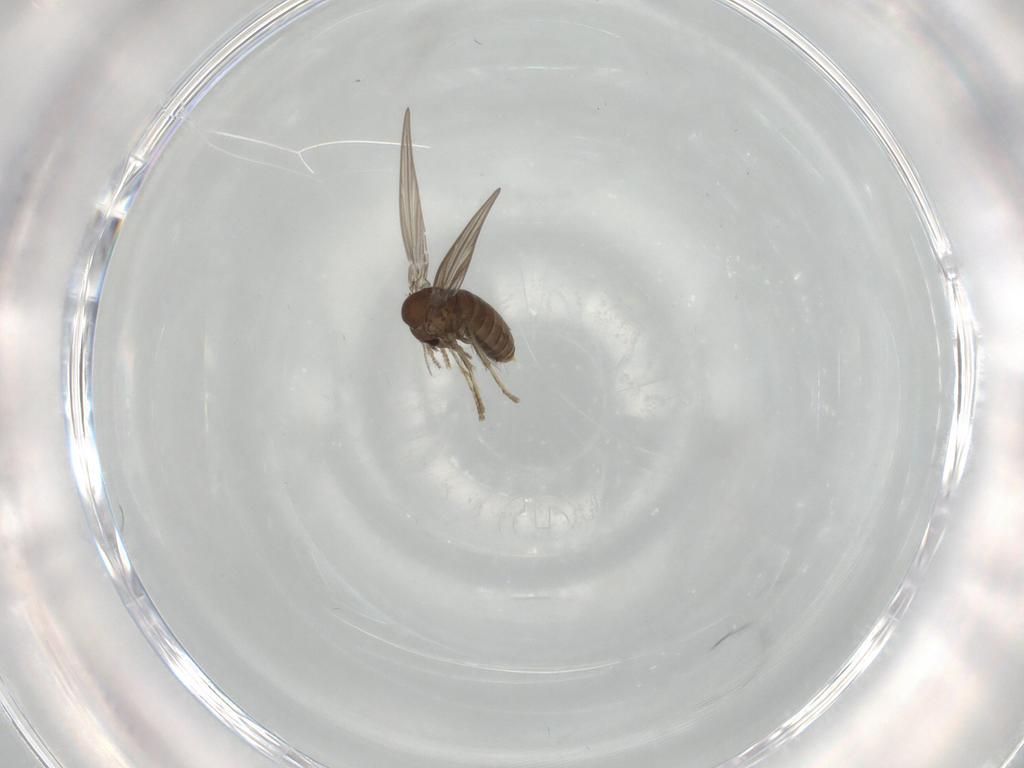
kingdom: Animalia
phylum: Arthropoda
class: Insecta
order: Diptera
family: Sciaridae
